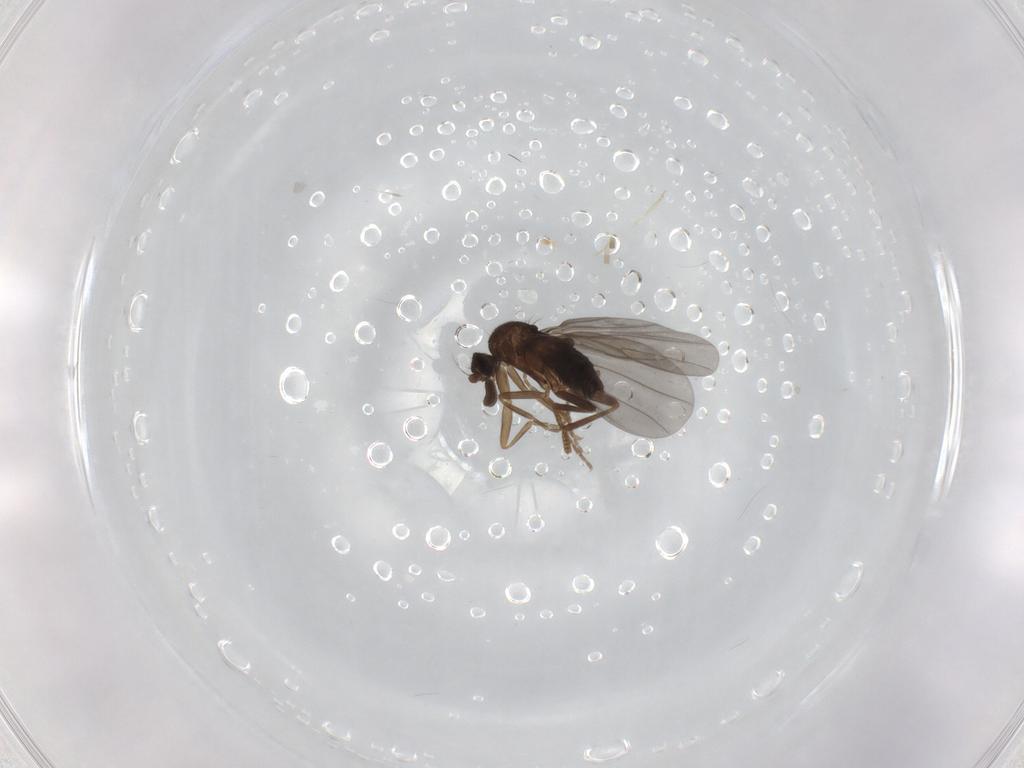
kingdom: Animalia
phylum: Arthropoda
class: Insecta
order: Diptera
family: Phoridae
